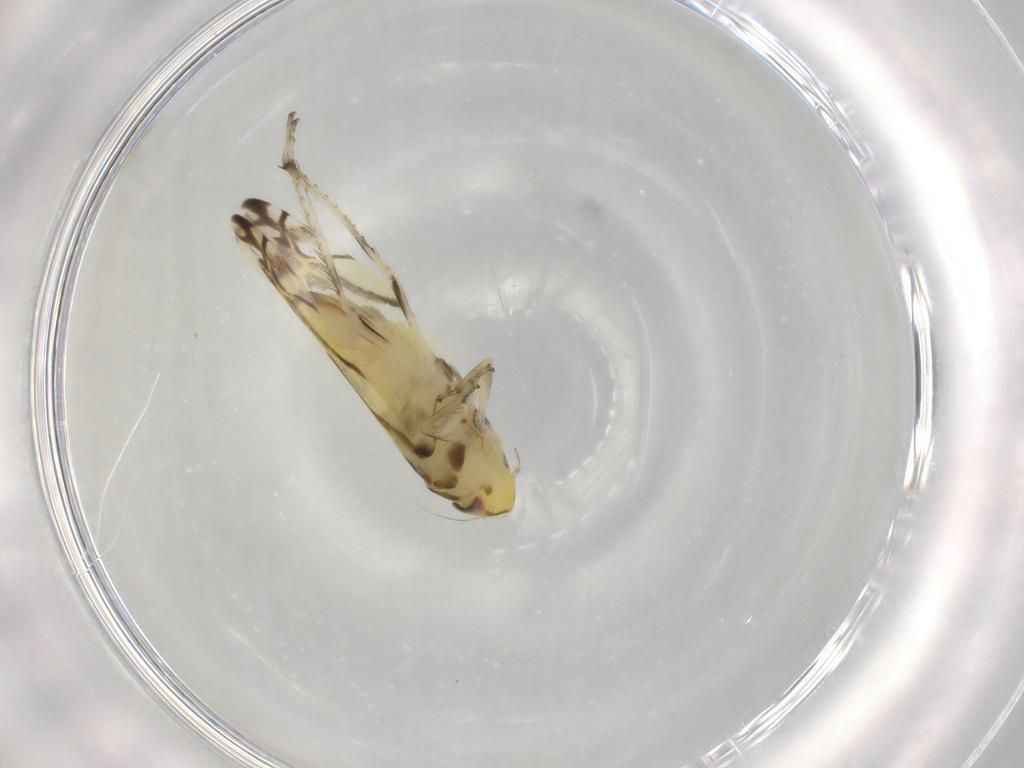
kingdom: Animalia
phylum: Arthropoda
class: Insecta
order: Hemiptera
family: Cicadellidae
